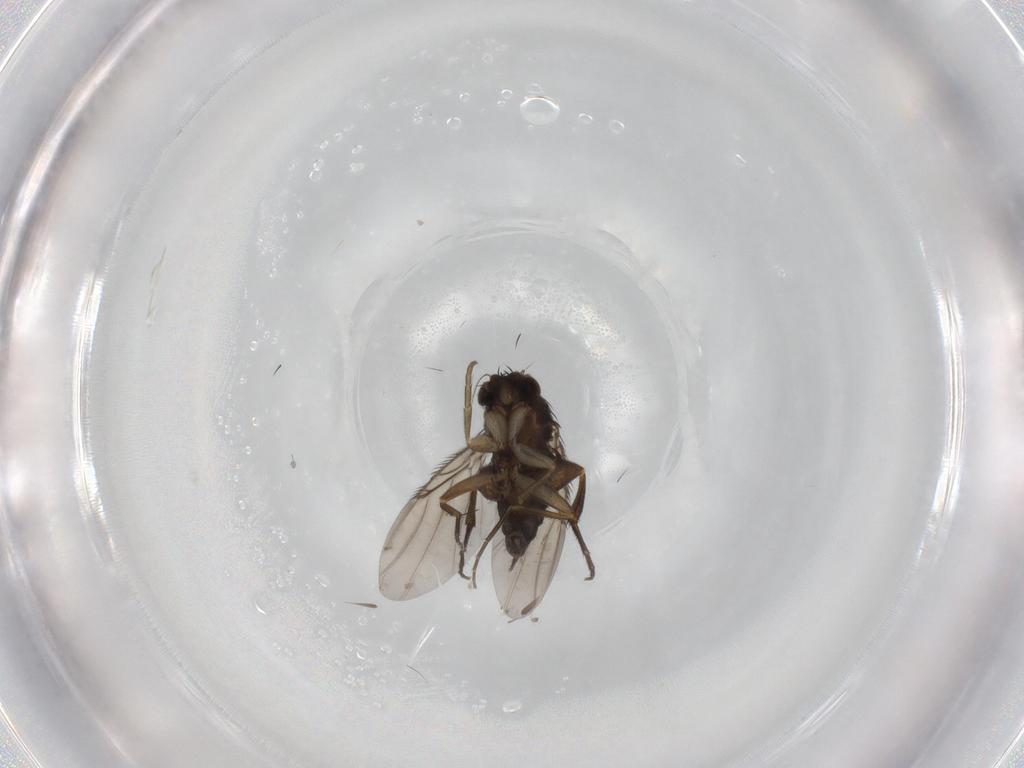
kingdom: Animalia
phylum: Arthropoda
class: Insecta
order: Diptera
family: Phoridae
